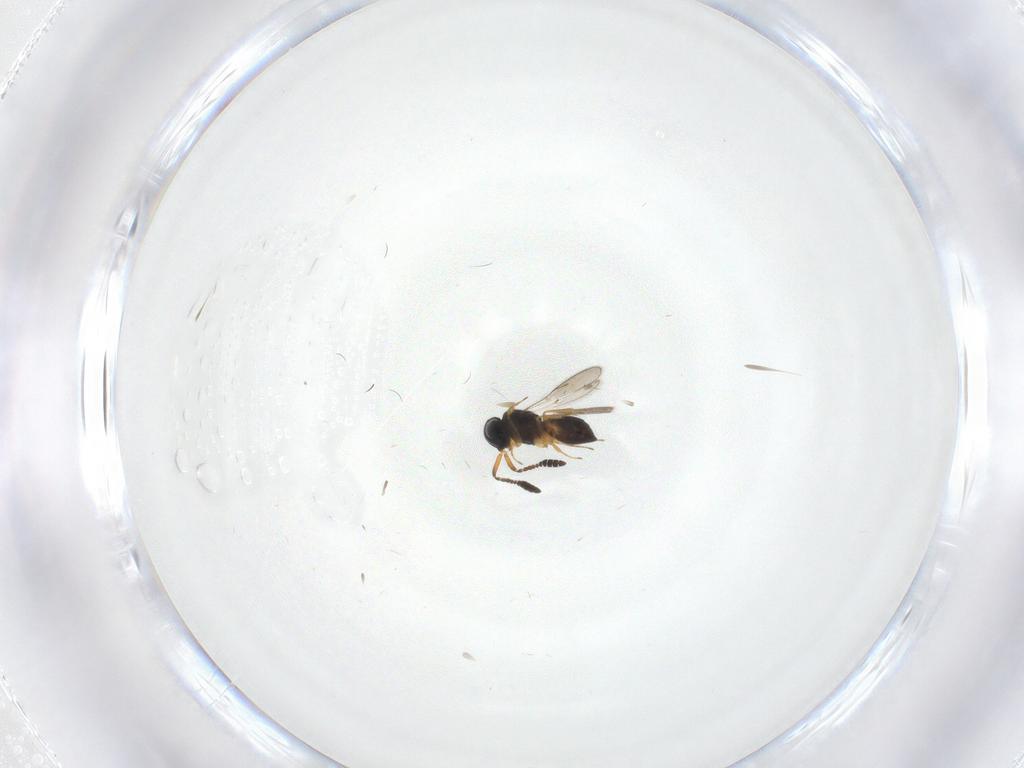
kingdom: Animalia
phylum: Arthropoda
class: Insecta
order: Hymenoptera
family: Scelionidae
